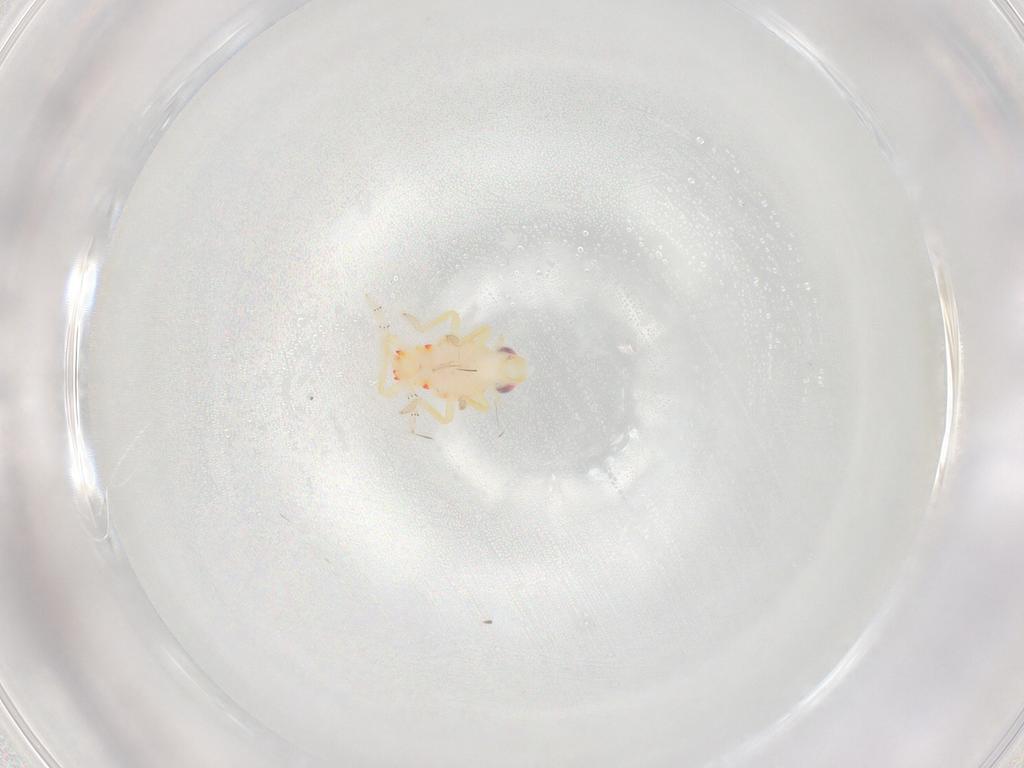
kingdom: Animalia
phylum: Arthropoda
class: Insecta
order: Hemiptera
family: Tropiduchidae
